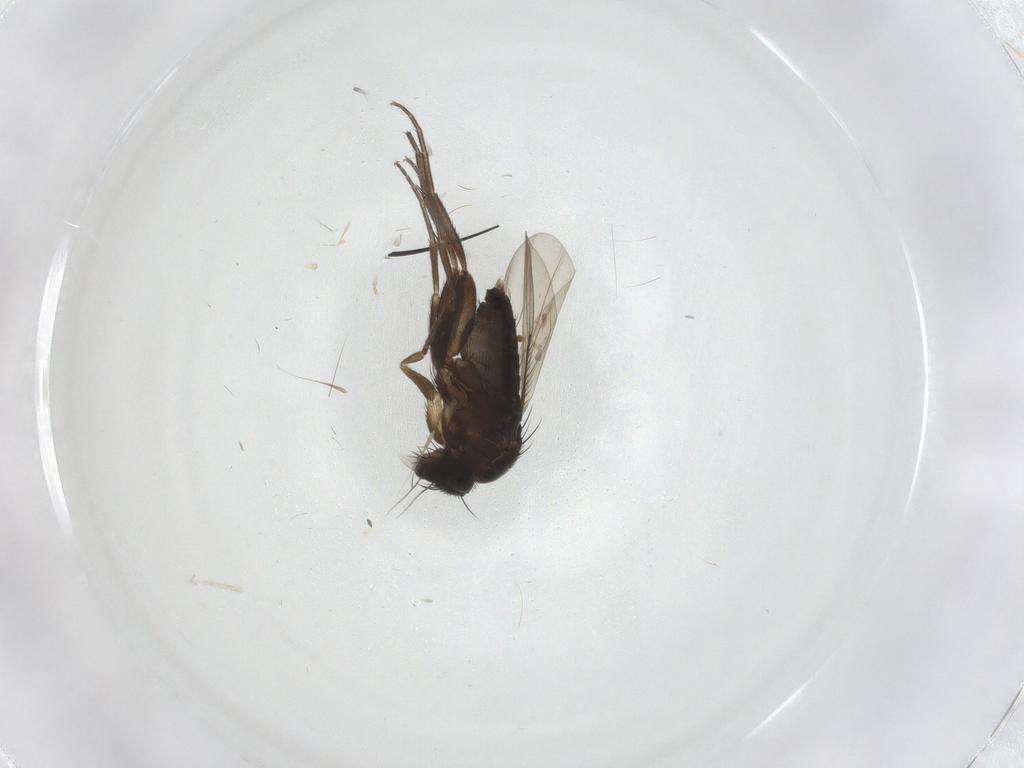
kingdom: Animalia
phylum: Arthropoda
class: Insecta
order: Diptera
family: Phoridae
